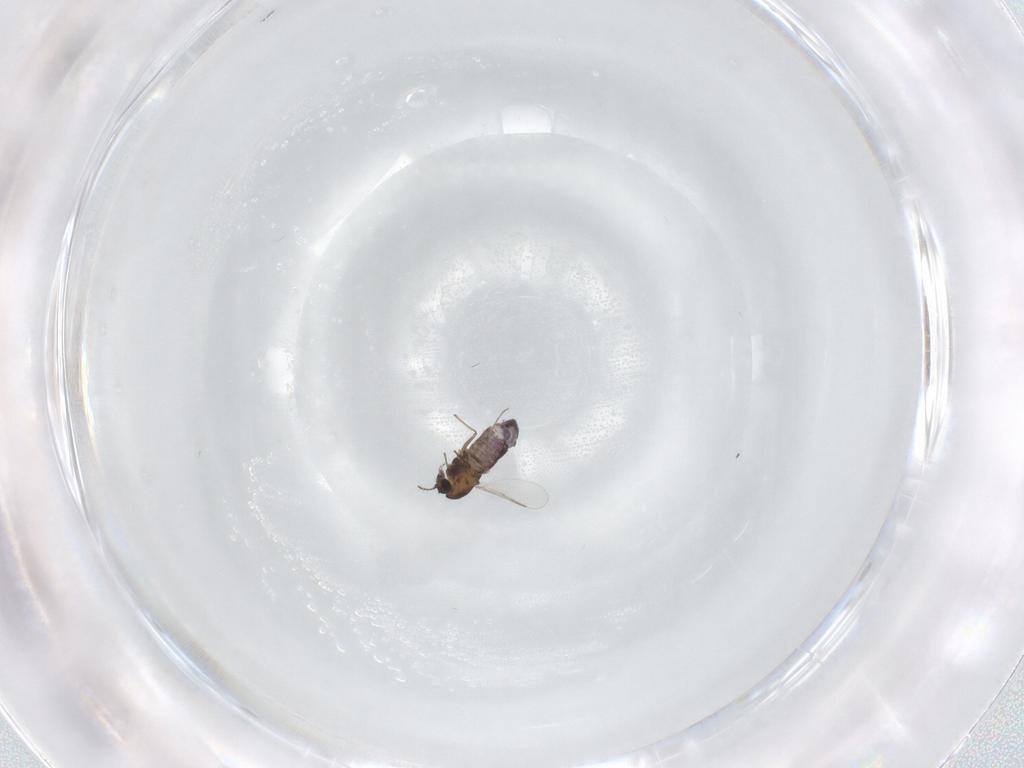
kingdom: Animalia
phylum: Arthropoda
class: Insecta
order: Diptera
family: Chironomidae
